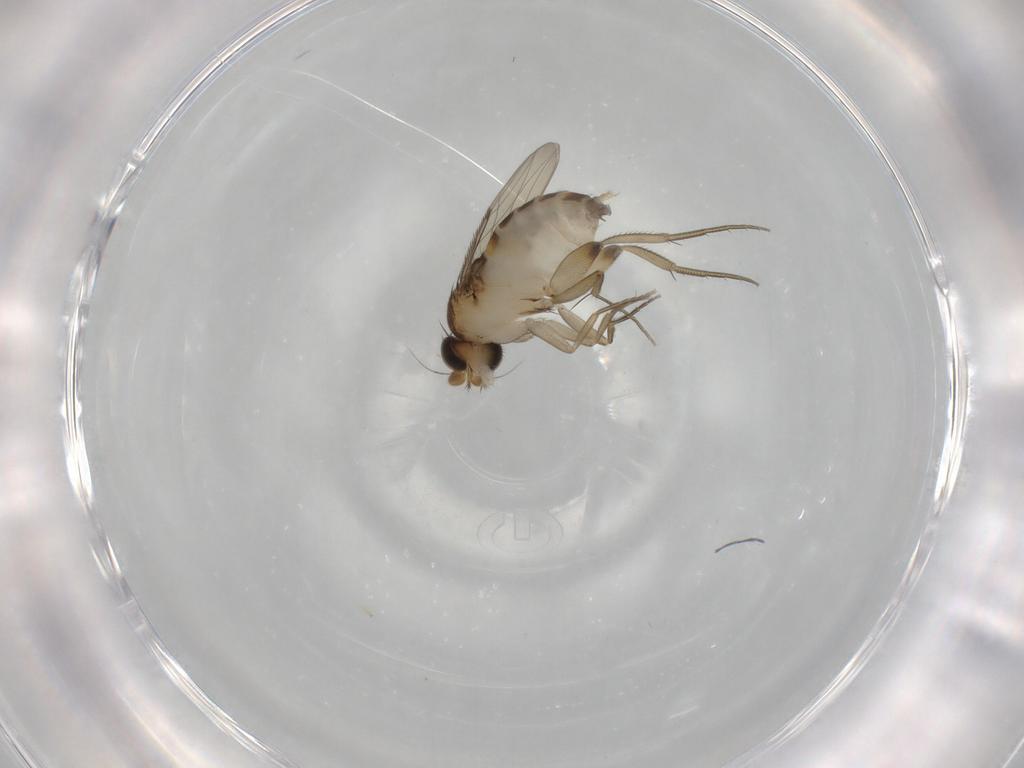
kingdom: Animalia
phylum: Arthropoda
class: Insecta
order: Diptera
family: Phoridae
